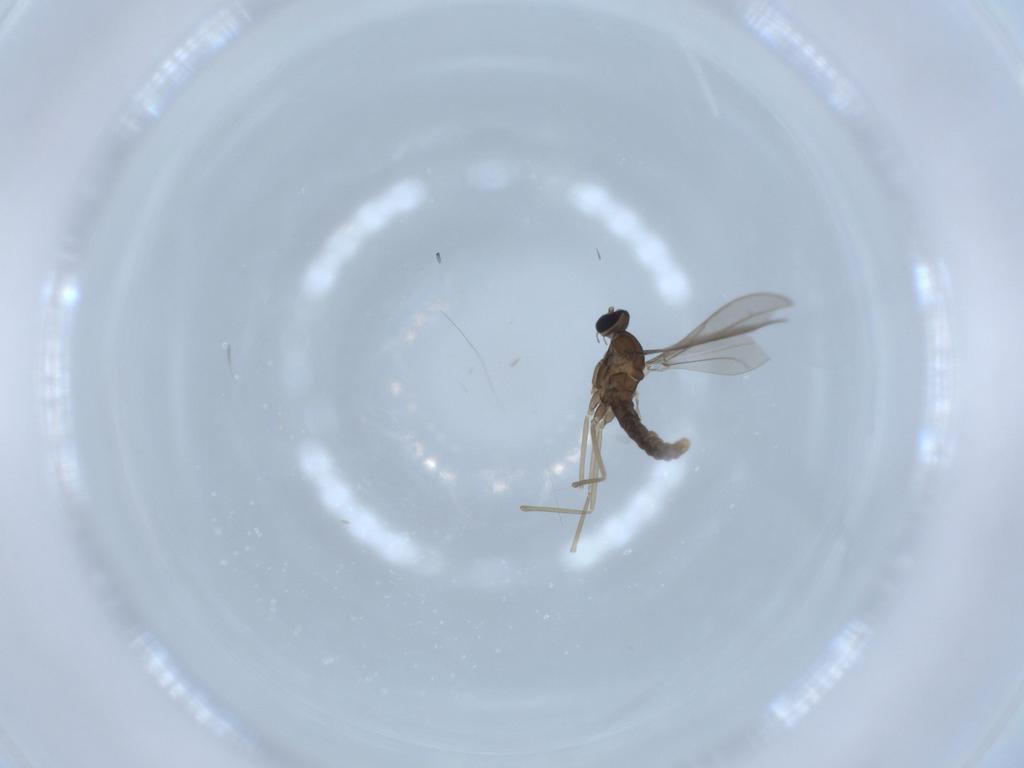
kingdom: Animalia
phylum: Arthropoda
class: Insecta
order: Diptera
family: Cecidomyiidae
